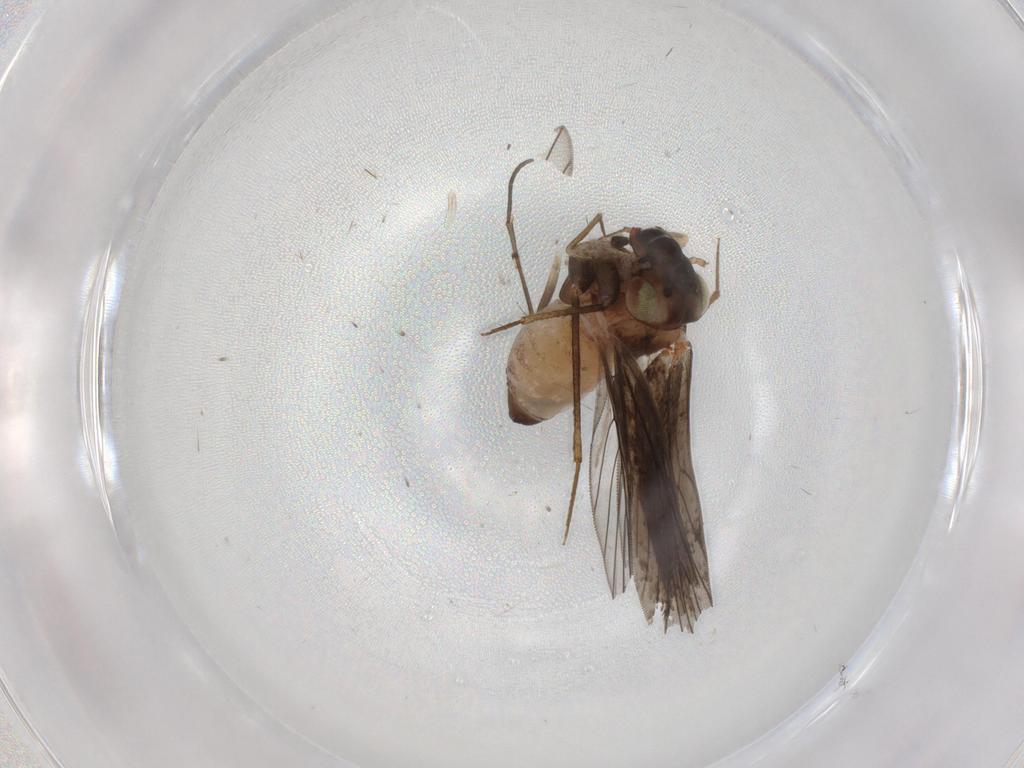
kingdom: Animalia
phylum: Arthropoda
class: Insecta
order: Psocodea
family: Lepidopsocidae
